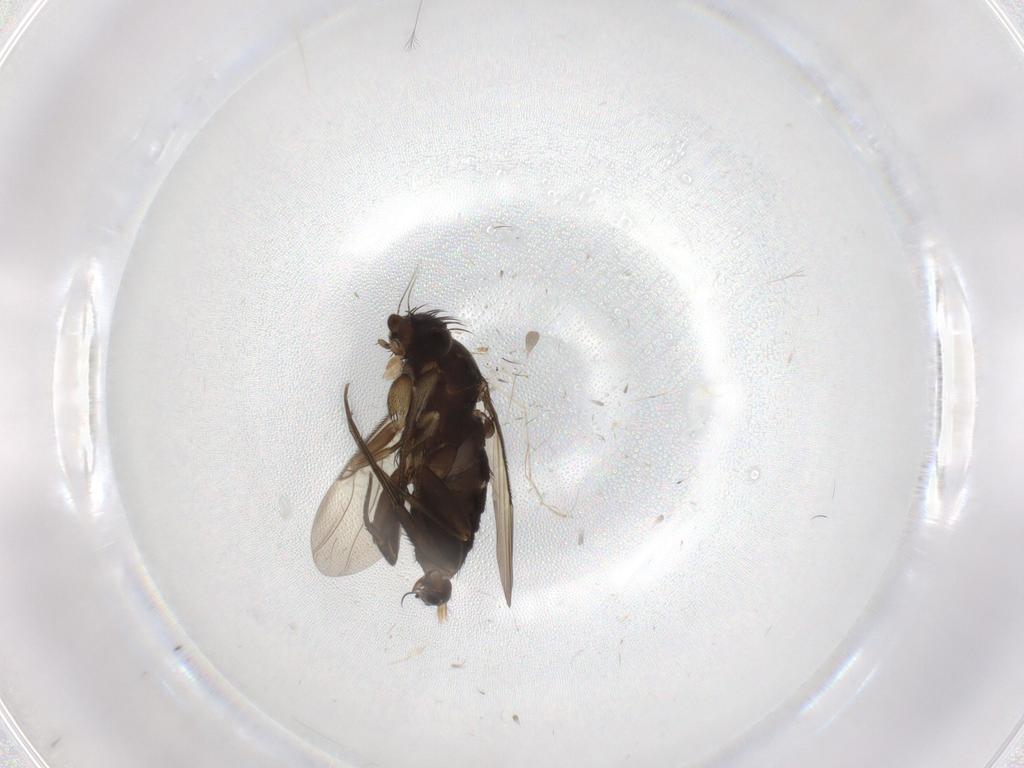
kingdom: Animalia
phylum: Arthropoda
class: Insecta
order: Diptera
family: Phoridae
